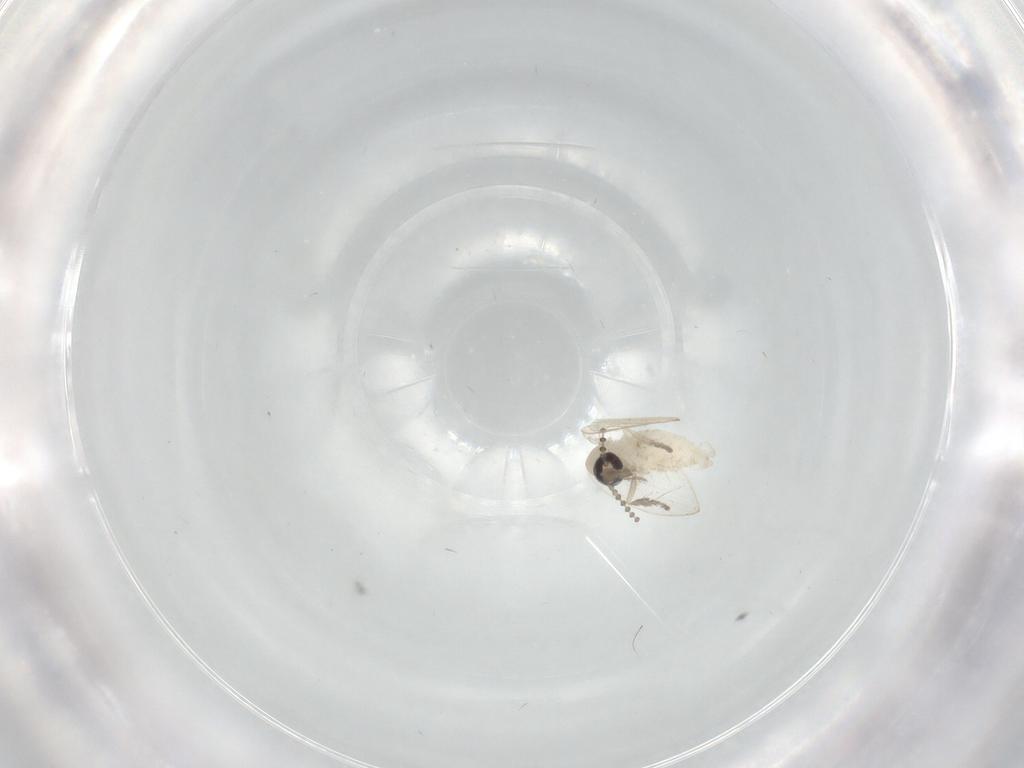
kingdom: Animalia
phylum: Arthropoda
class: Insecta
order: Diptera
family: Psychodidae
